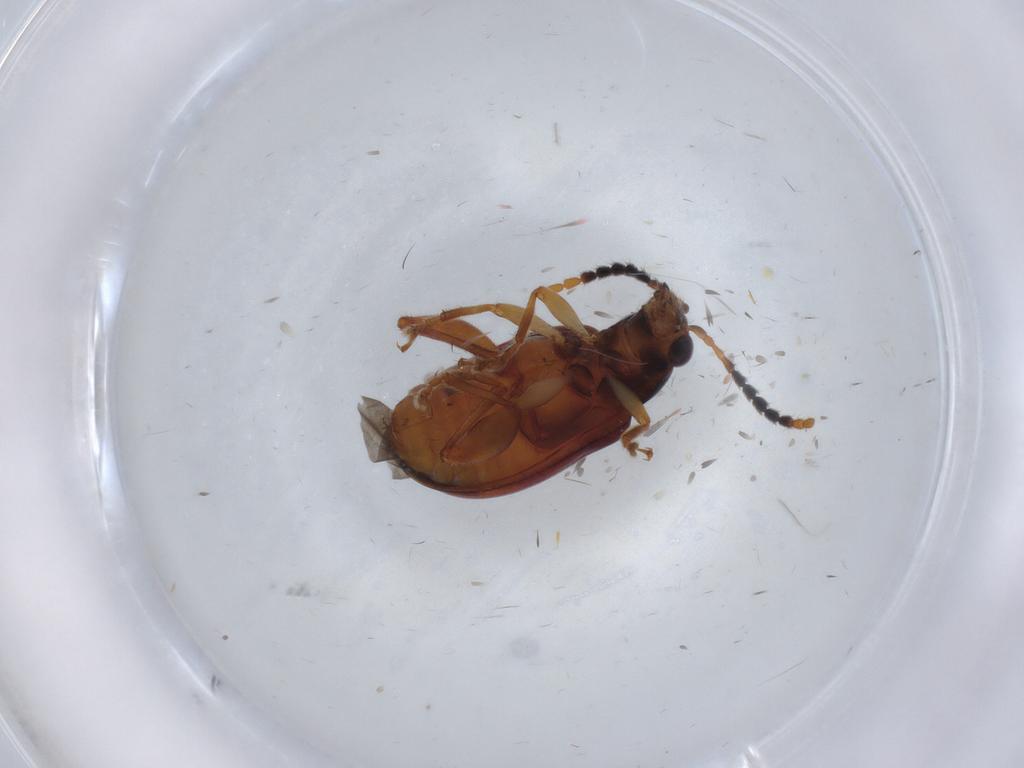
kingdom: Animalia
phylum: Arthropoda
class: Insecta
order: Coleoptera
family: Chrysomelidae
